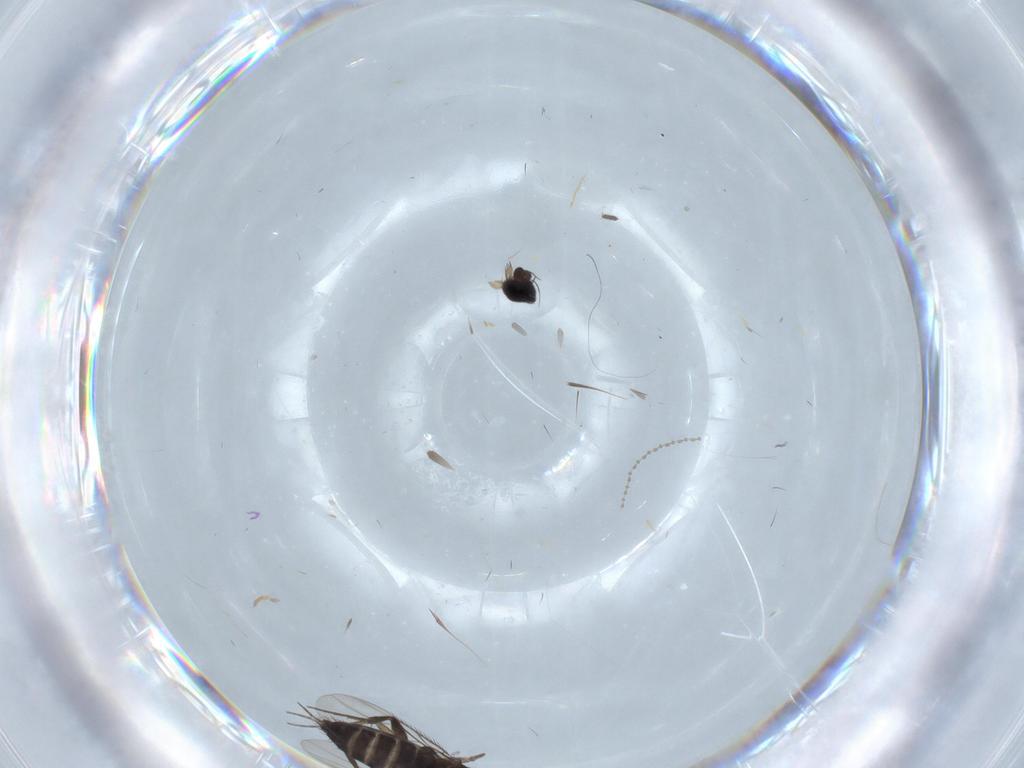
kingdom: Animalia
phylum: Arthropoda
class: Insecta
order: Diptera
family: Phoridae
